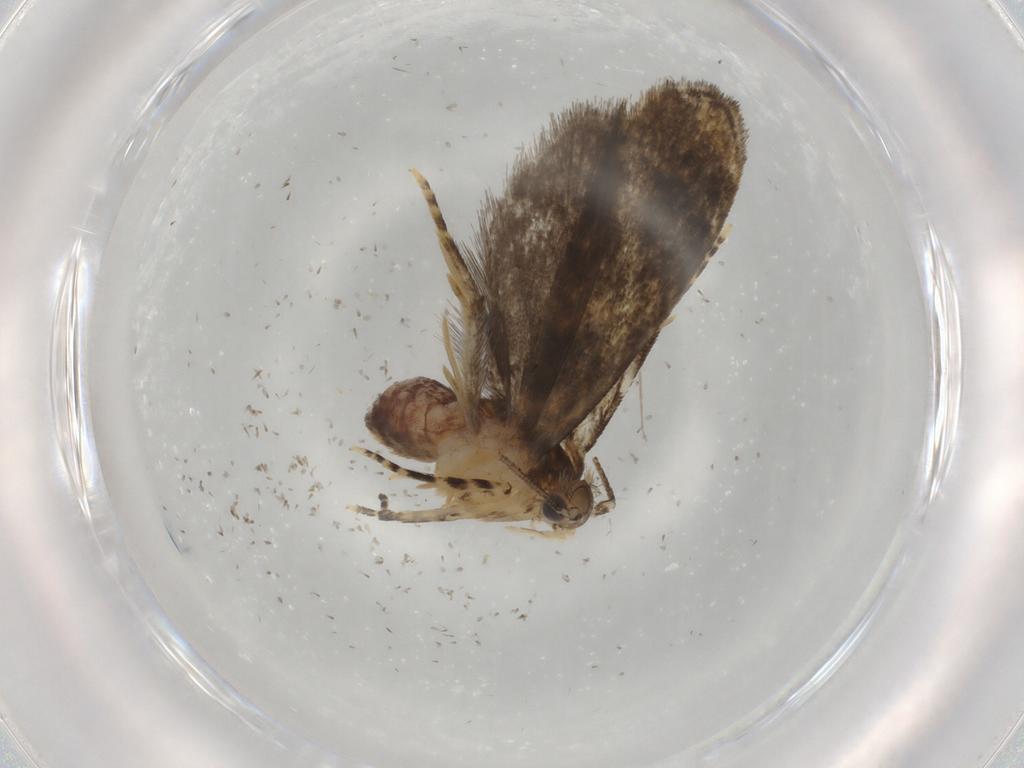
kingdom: Animalia
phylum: Arthropoda
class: Insecta
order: Lepidoptera
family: Tineidae
